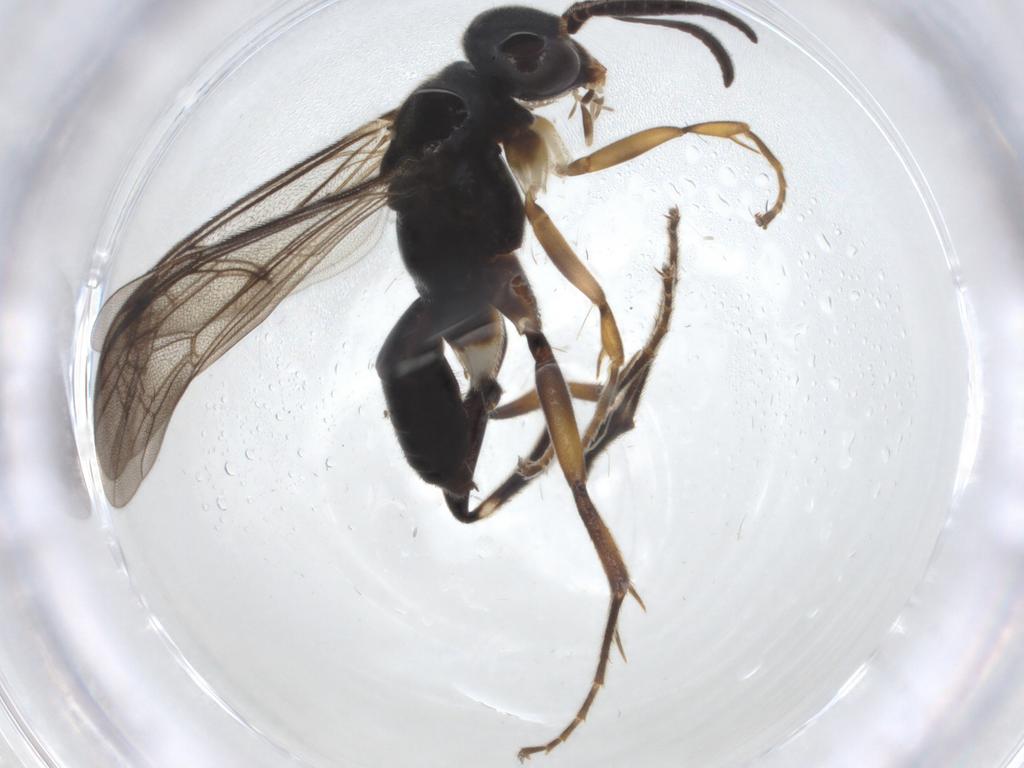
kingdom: Animalia
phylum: Arthropoda
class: Insecta
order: Hymenoptera
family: Pompilidae
